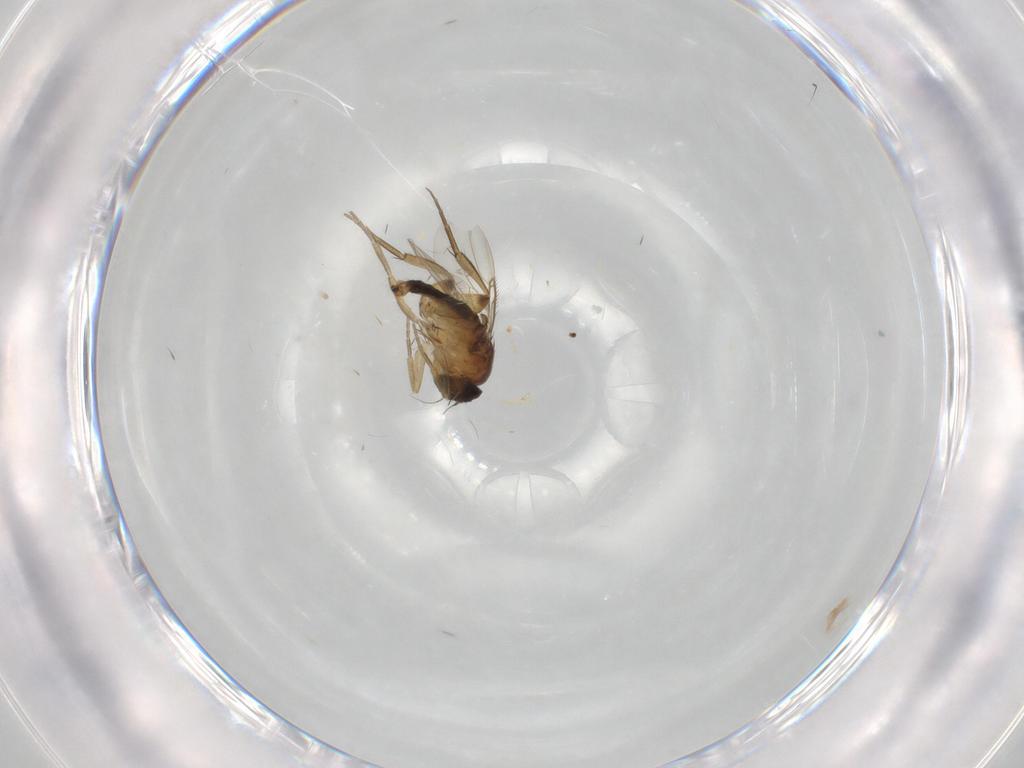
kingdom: Animalia
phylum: Arthropoda
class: Insecta
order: Diptera
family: Phoridae
